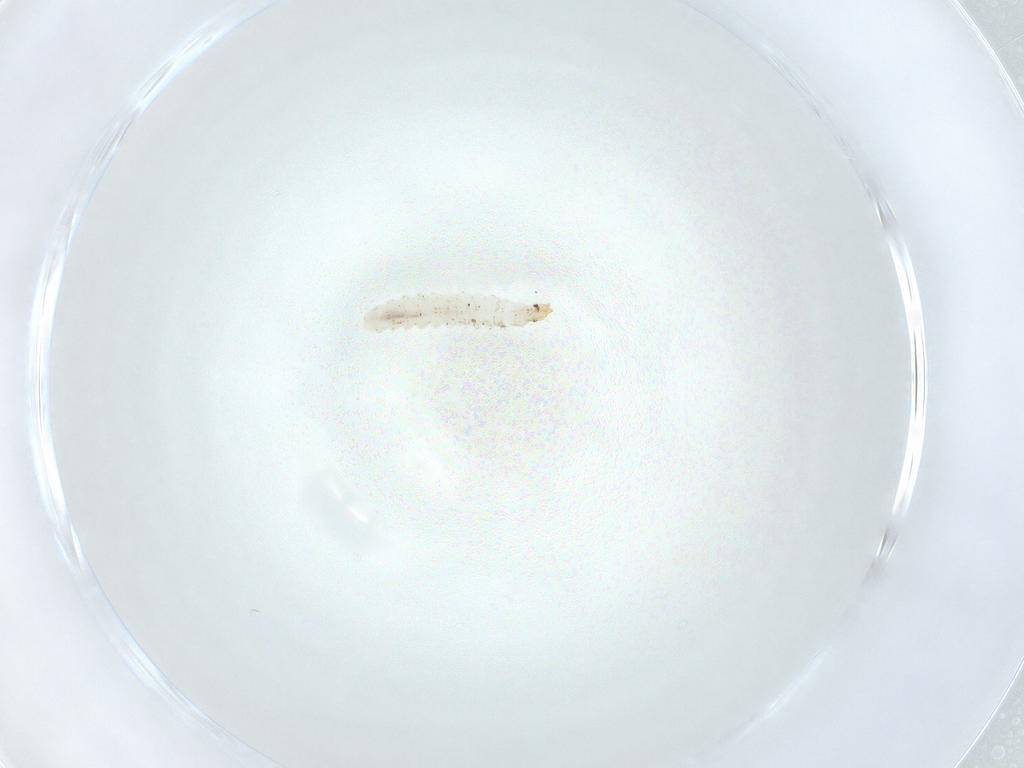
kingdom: Animalia
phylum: Arthropoda
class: Insecta
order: Diptera
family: Stratiomyidae
